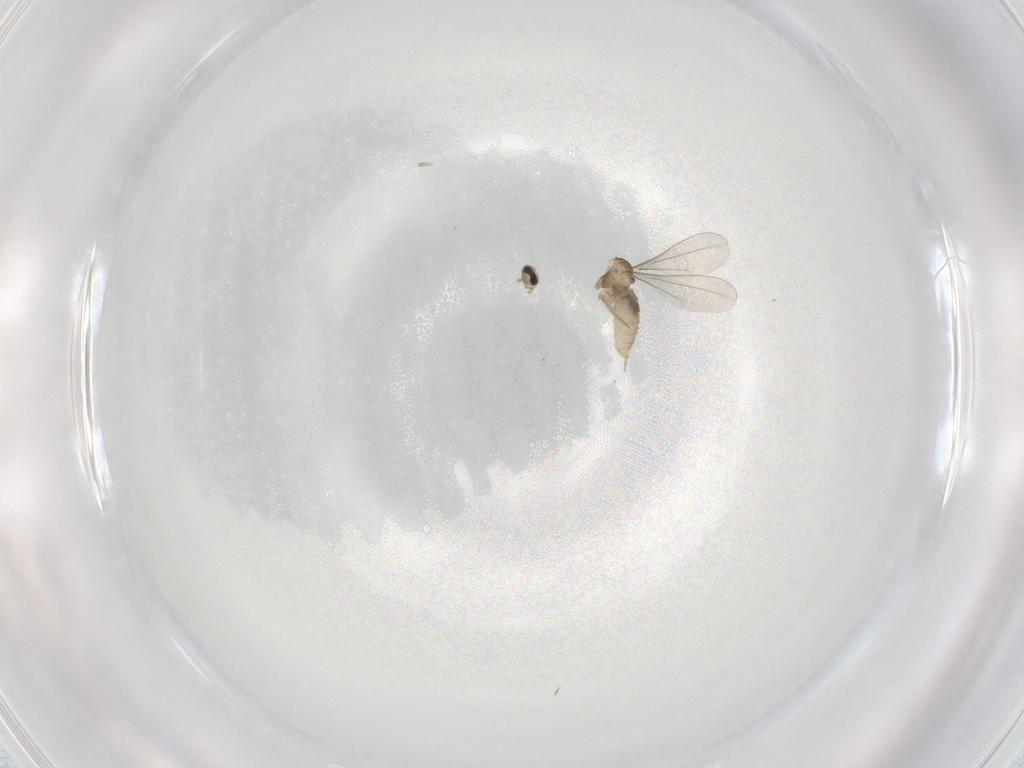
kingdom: Animalia
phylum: Arthropoda
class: Insecta
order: Diptera
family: Cecidomyiidae
